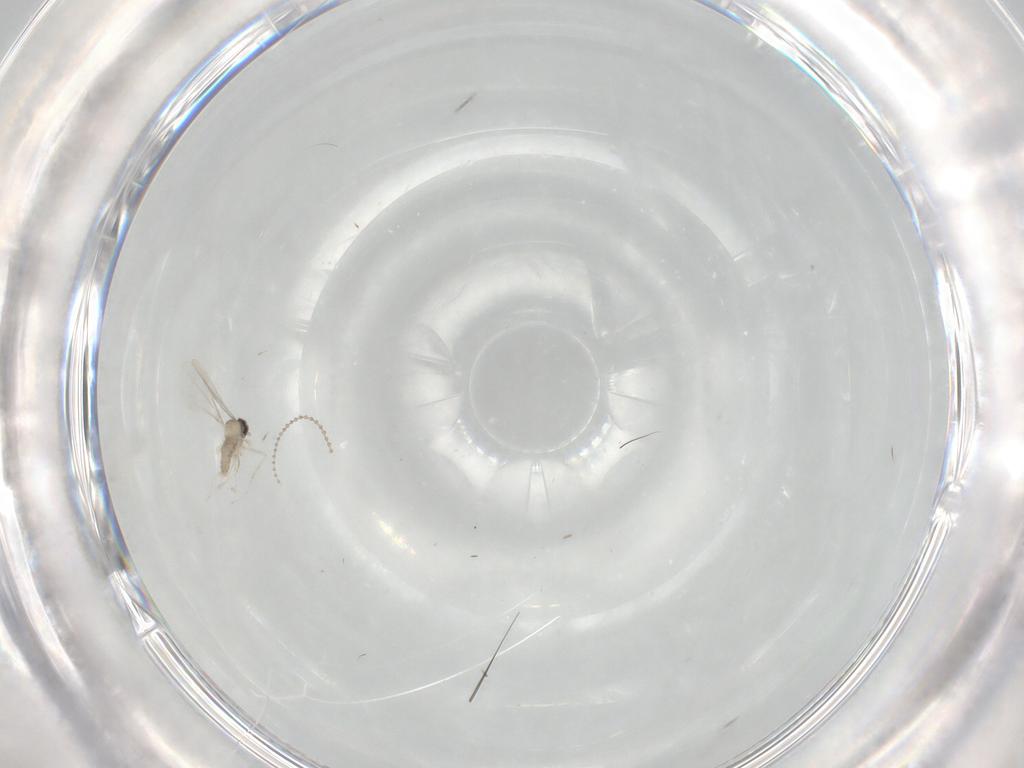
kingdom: Animalia
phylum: Arthropoda
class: Insecta
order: Diptera
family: Cecidomyiidae
